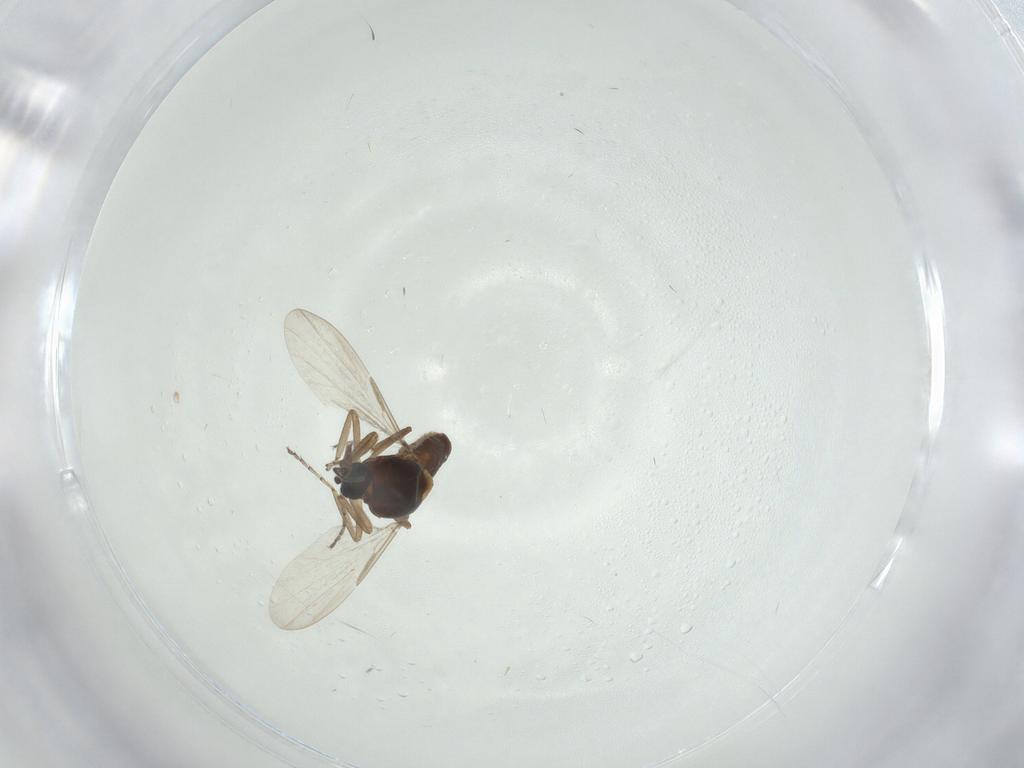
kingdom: Animalia
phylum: Arthropoda
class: Insecta
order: Diptera
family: Ceratopogonidae
